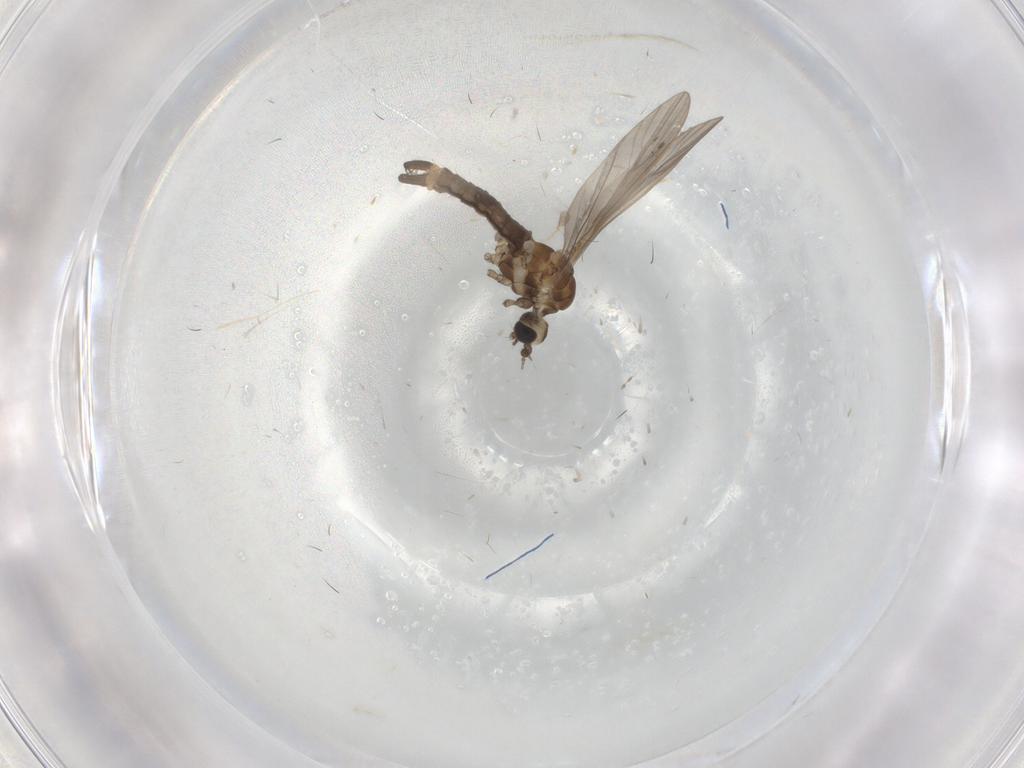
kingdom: Animalia
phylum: Arthropoda
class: Insecta
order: Diptera
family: Limoniidae
